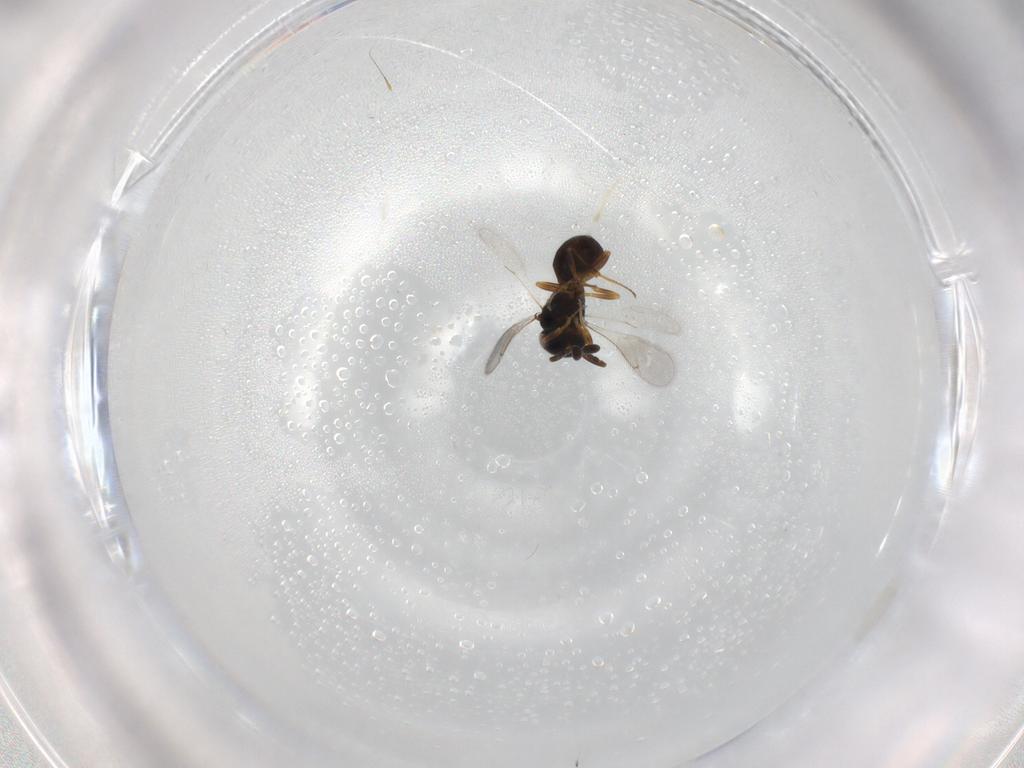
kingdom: Animalia
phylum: Arthropoda
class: Insecta
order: Hymenoptera
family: Scelionidae
